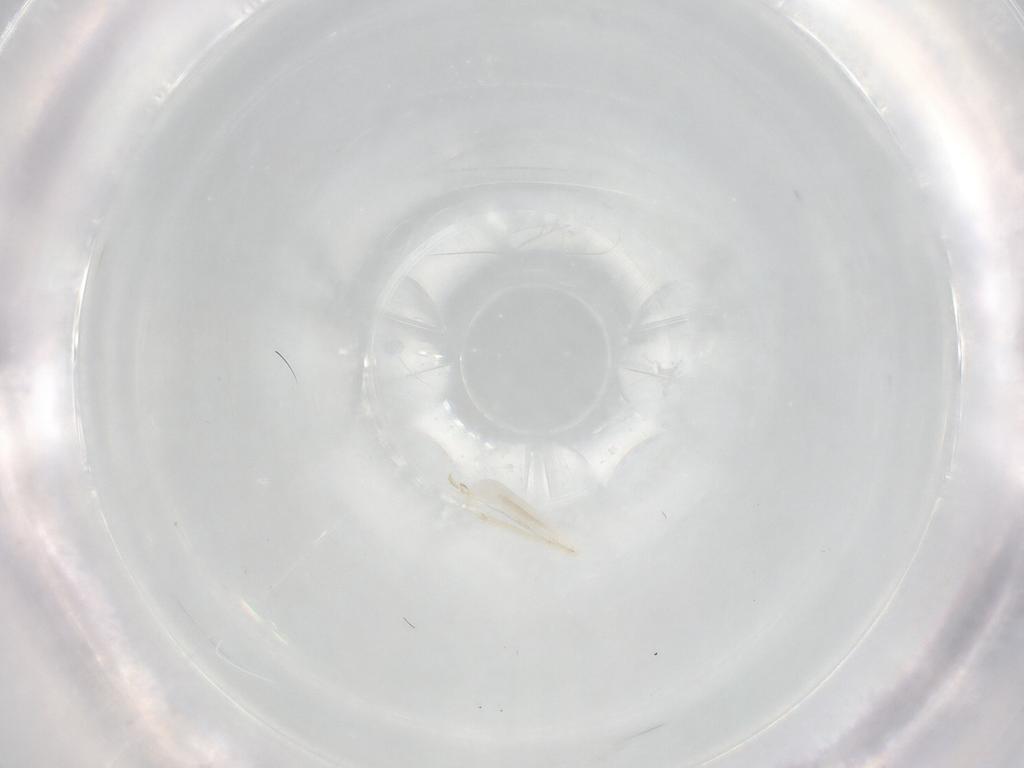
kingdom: Animalia
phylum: Arthropoda
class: Insecta
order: Orthoptera
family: Trigonidiidae
